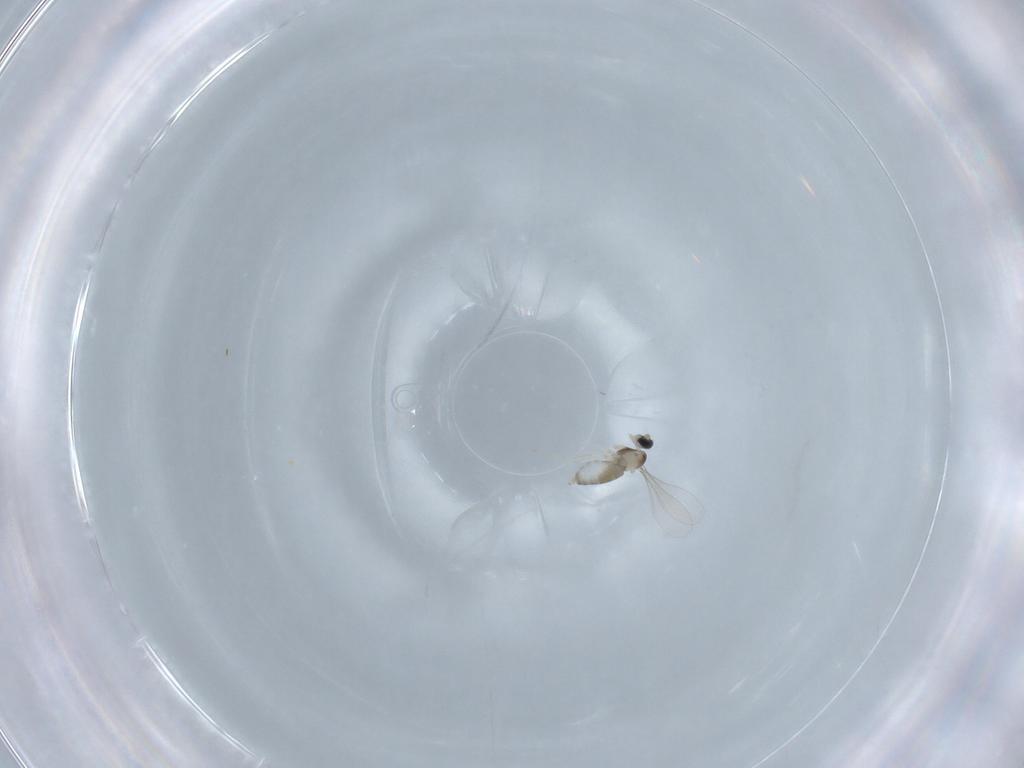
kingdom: Animalia
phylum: Arthropoda
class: Insecta
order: Diptera
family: Cecidomyiidae
